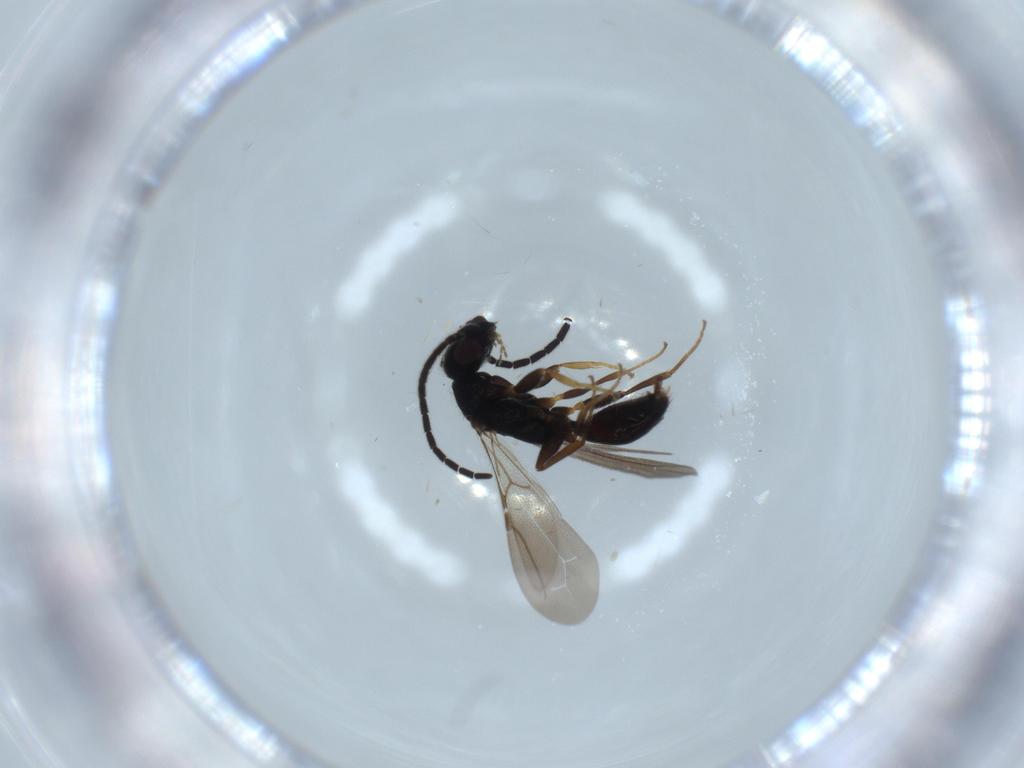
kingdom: Animalia
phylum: Arthropoda
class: Insecta
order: Hymenoptera
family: Bethylidae
